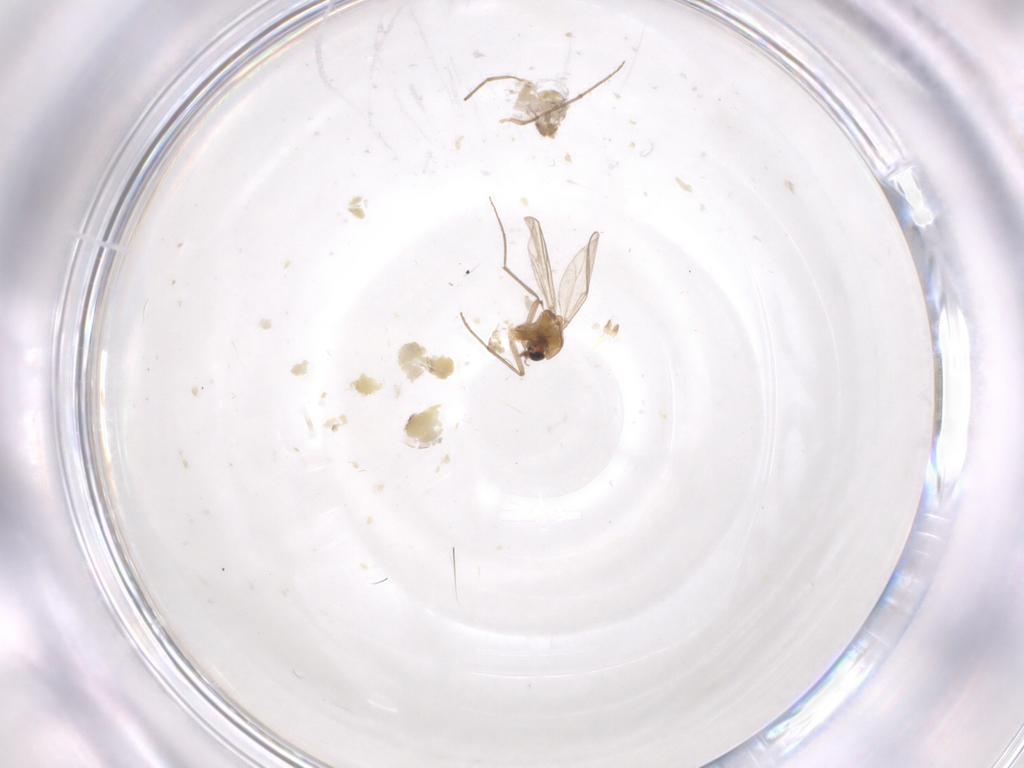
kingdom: Animalia
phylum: Arthropoda
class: Insecta
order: Diptera
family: Chironomidae
